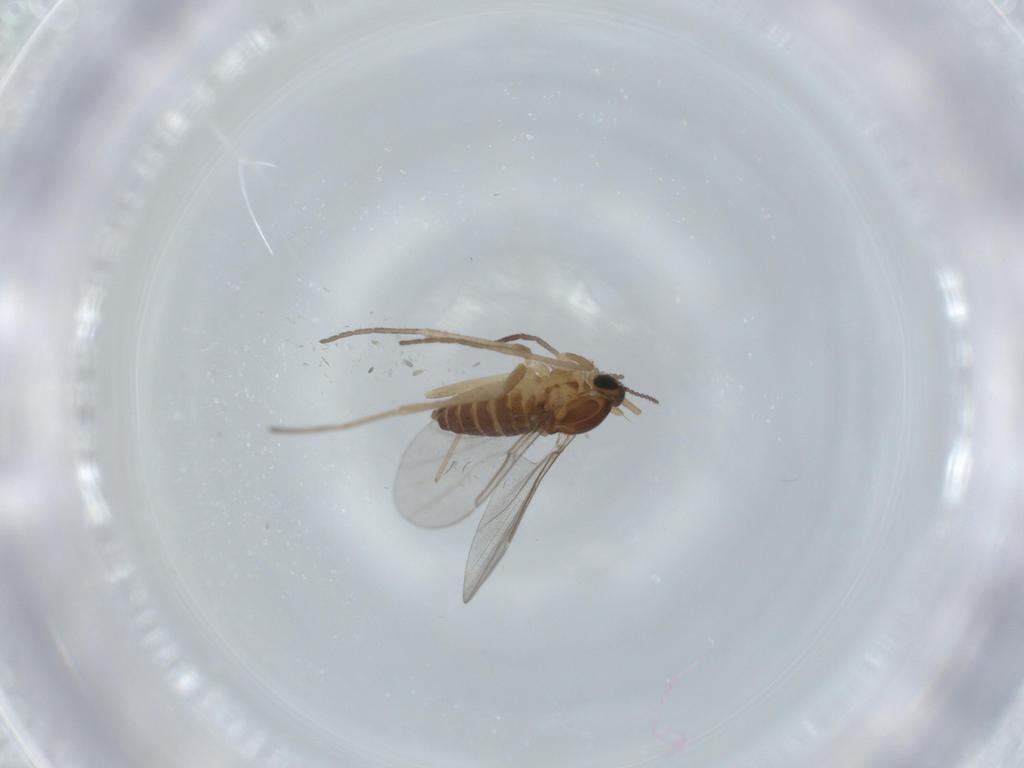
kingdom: Animalia
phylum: Arthropoda
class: Insecta
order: Diptera
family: Cecidomyiidae
